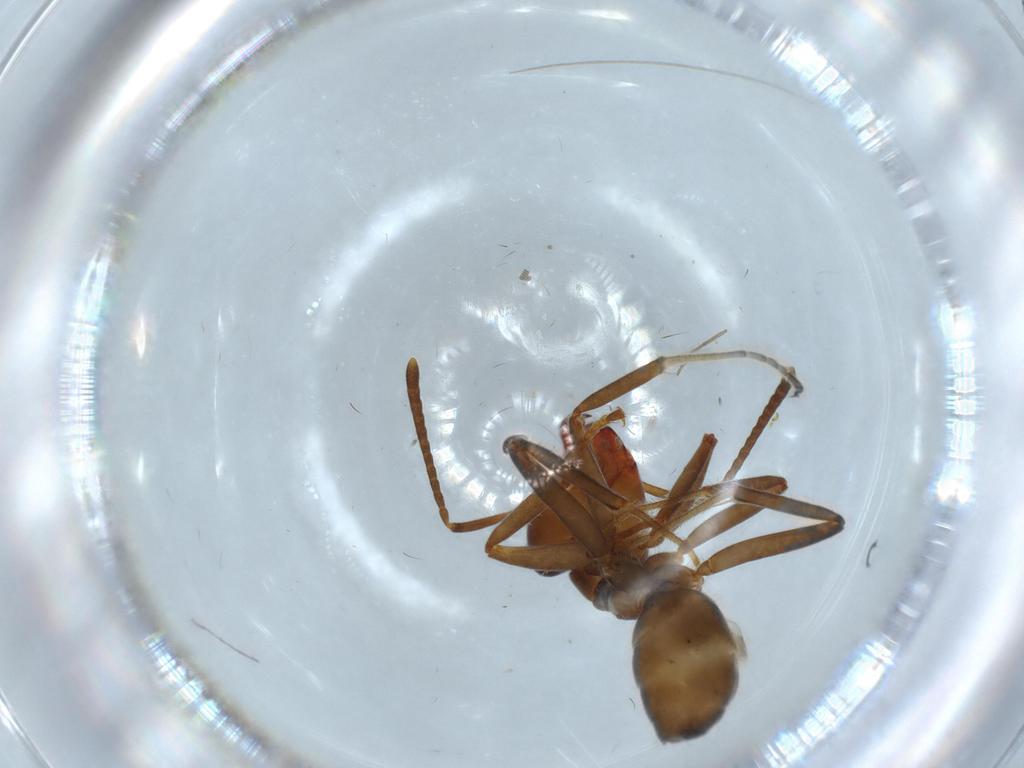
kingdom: Animalia
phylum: Arthropoda
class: Insecta
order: Hymenoptera
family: Formicidae
